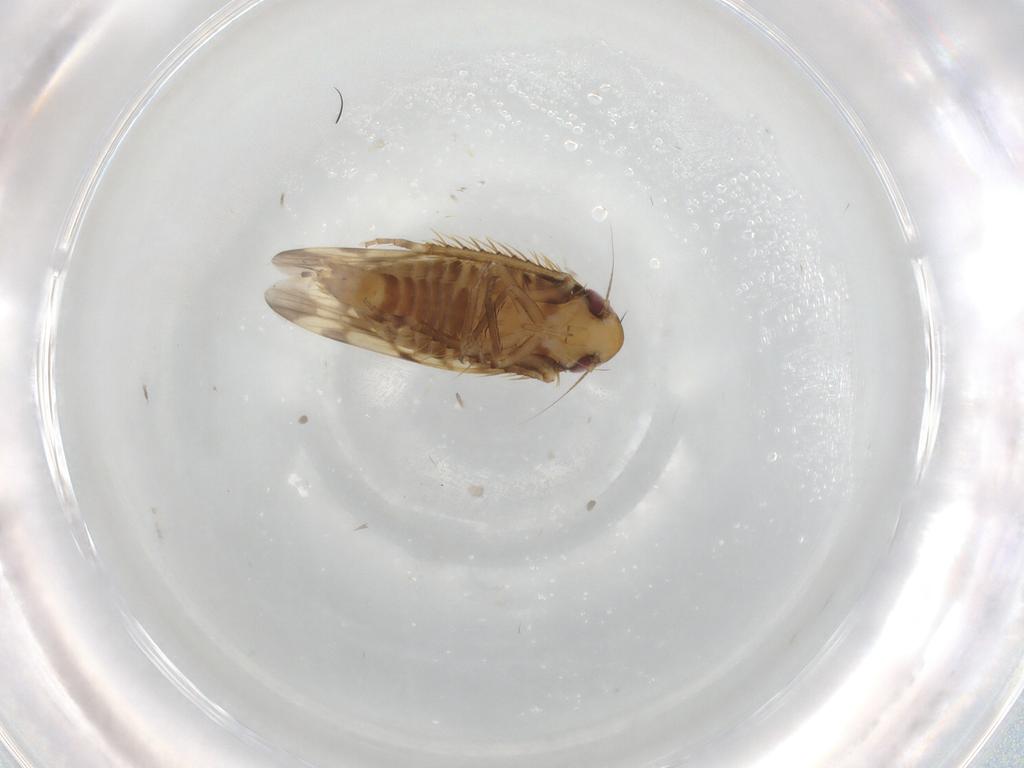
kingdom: Animalia
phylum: Arthropoda
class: Insecta
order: Hemiptera
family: Cicadellidae
